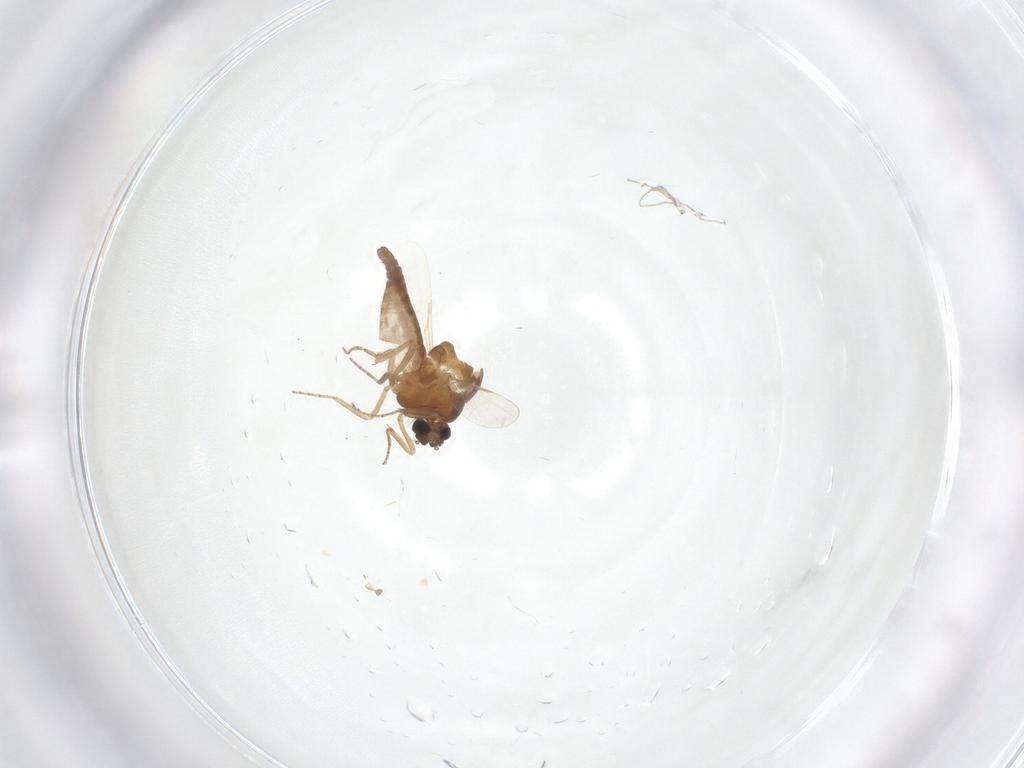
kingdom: Animalia
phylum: Arthropoda
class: Insecta
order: Diptera
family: Ceratopogonidae
